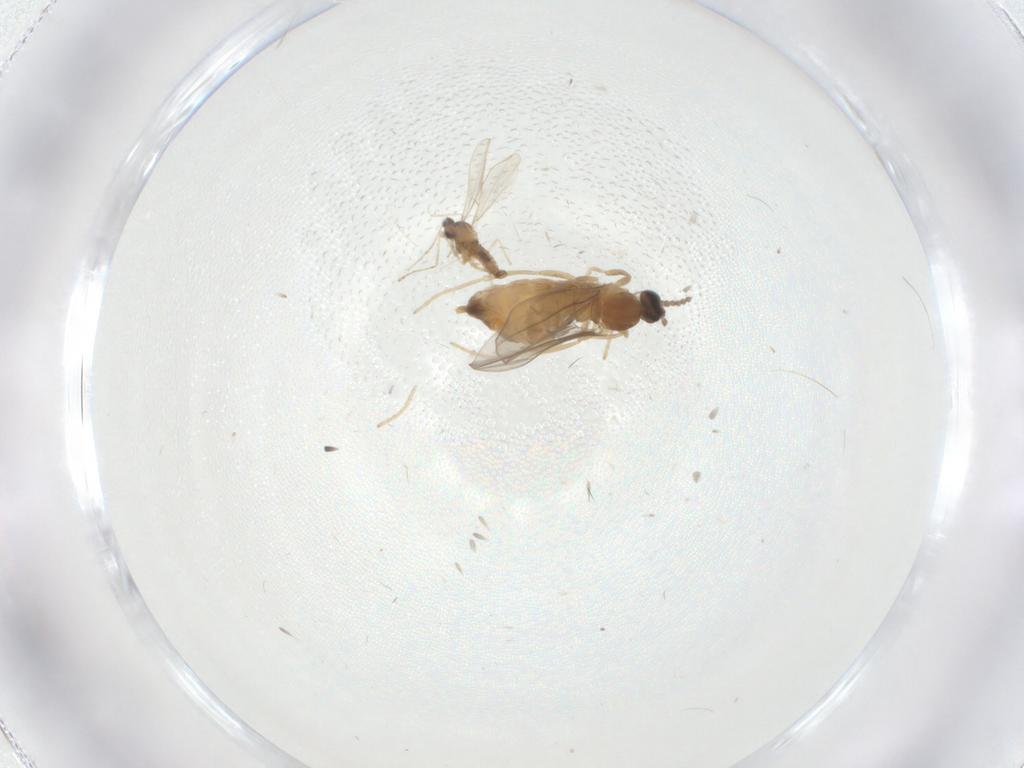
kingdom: Animalia
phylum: Arthropoda
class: Insecta
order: Diptera
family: Cecidomyiidae
